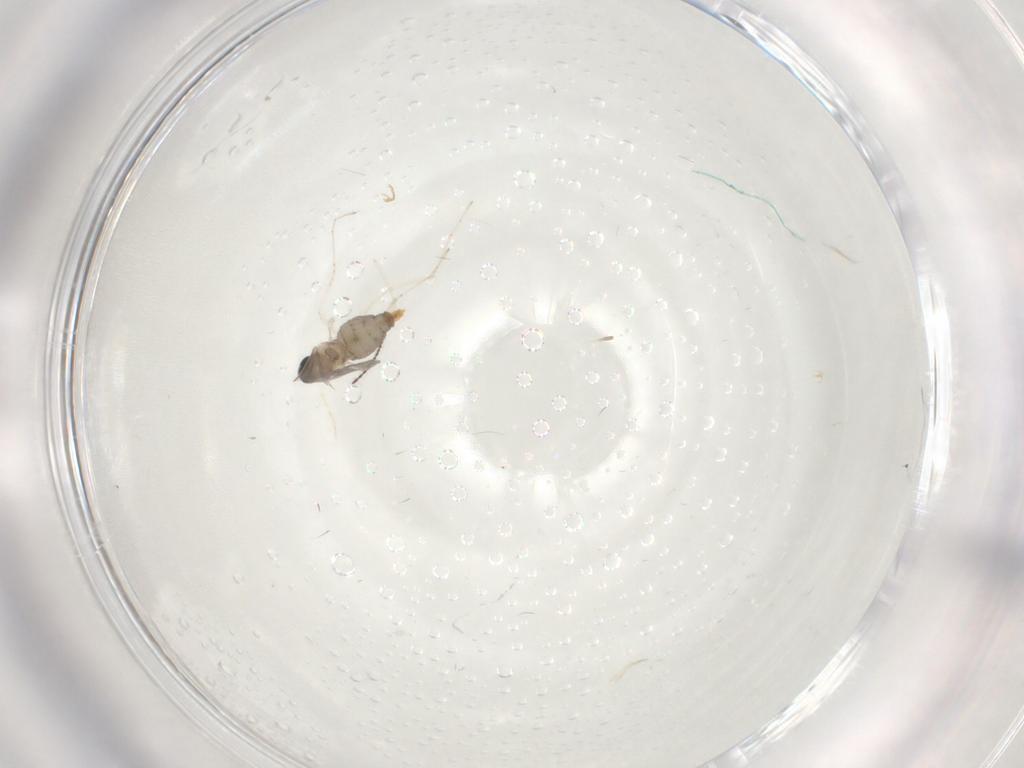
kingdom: Animalia
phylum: Arthropoda
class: Insecta
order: Diptera
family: Cecidomyiidae
